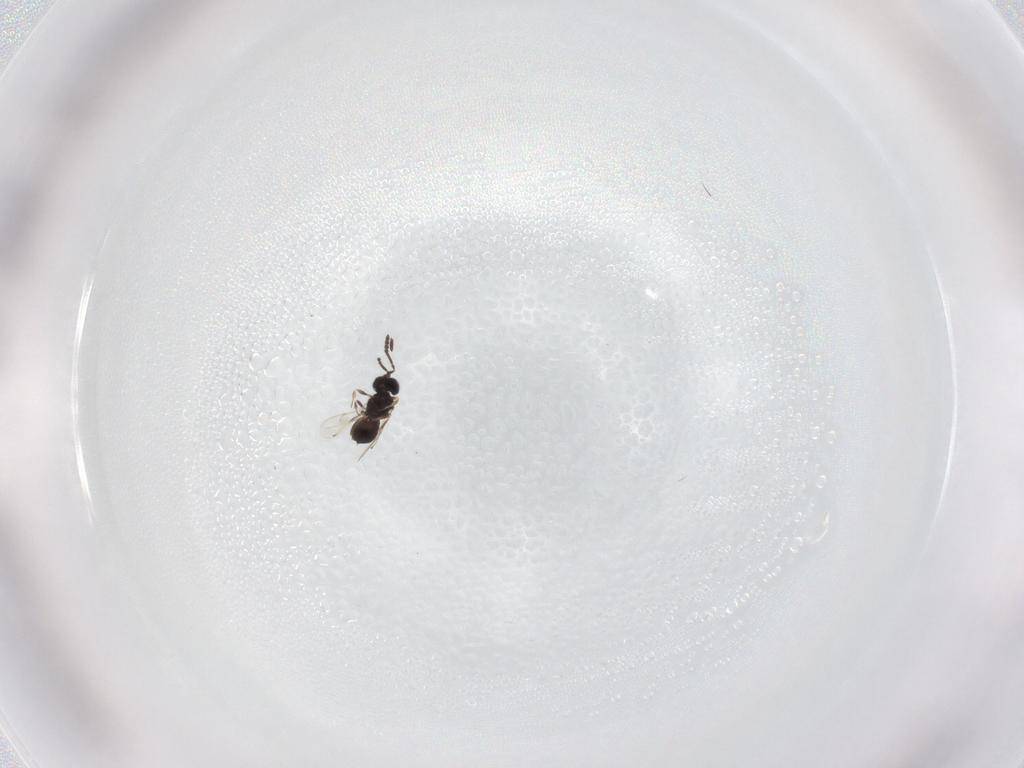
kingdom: Animalia
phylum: Arthropoda
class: Insecta
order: Hymenoptera
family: Scelionidae
